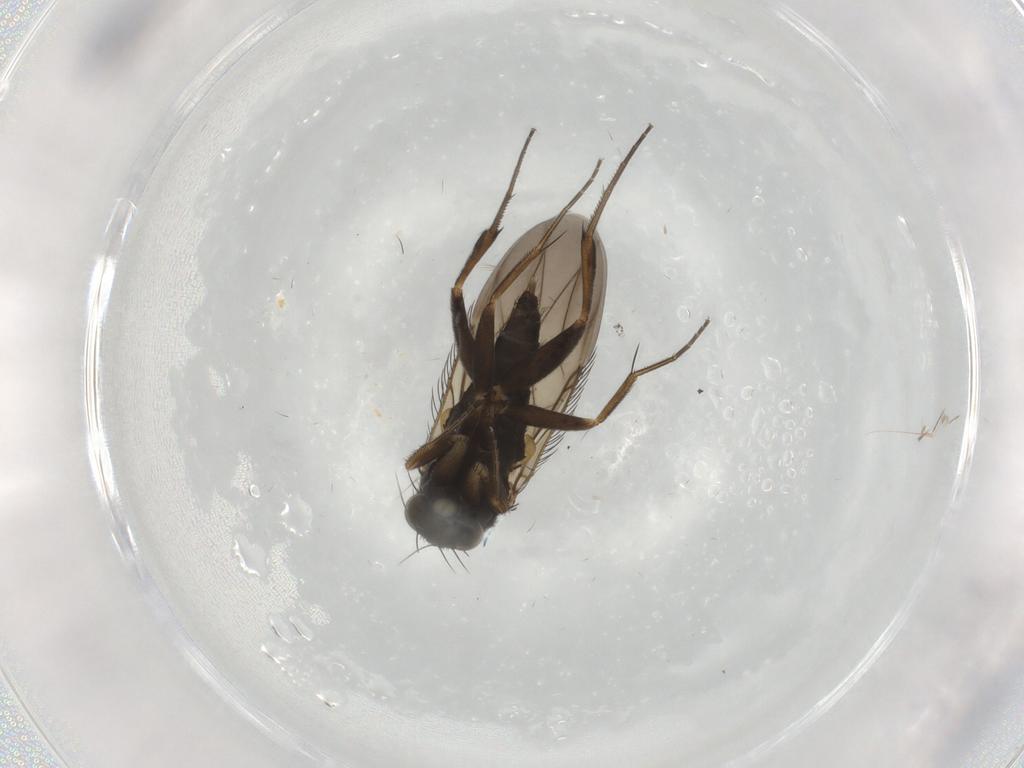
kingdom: Animalia
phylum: Arthropoda
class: Insecta
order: Diptera
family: Phoridae
